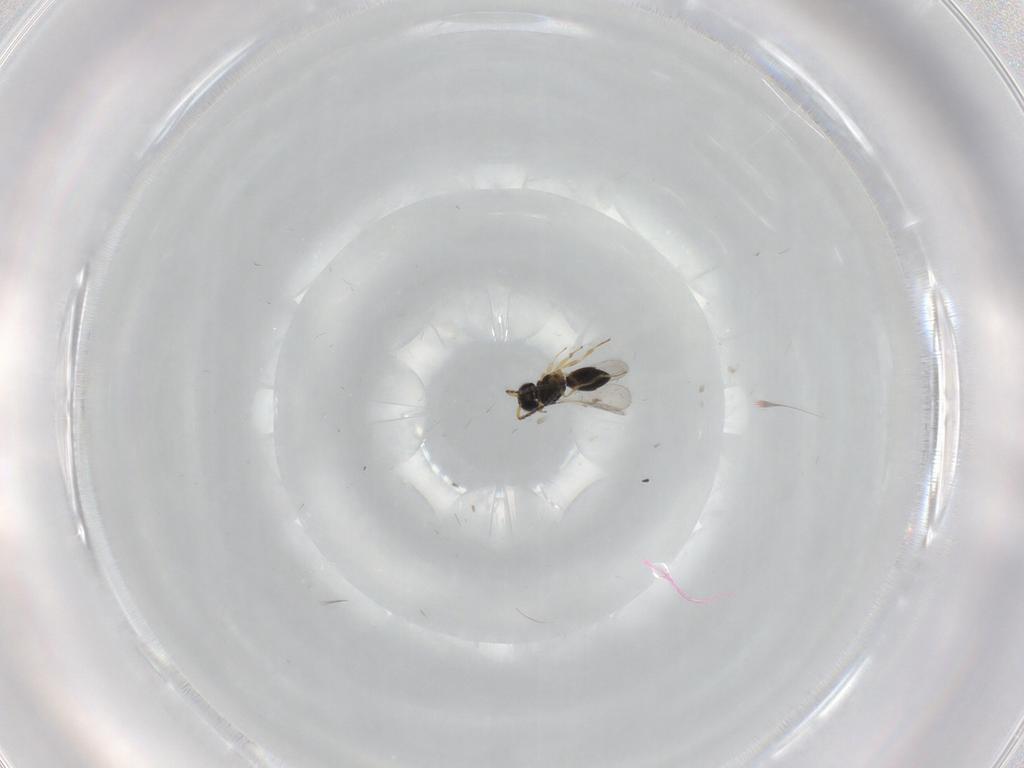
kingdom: Animalia
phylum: Arthropoda
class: Insecta
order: Hymenoptera
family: Scelionidae
